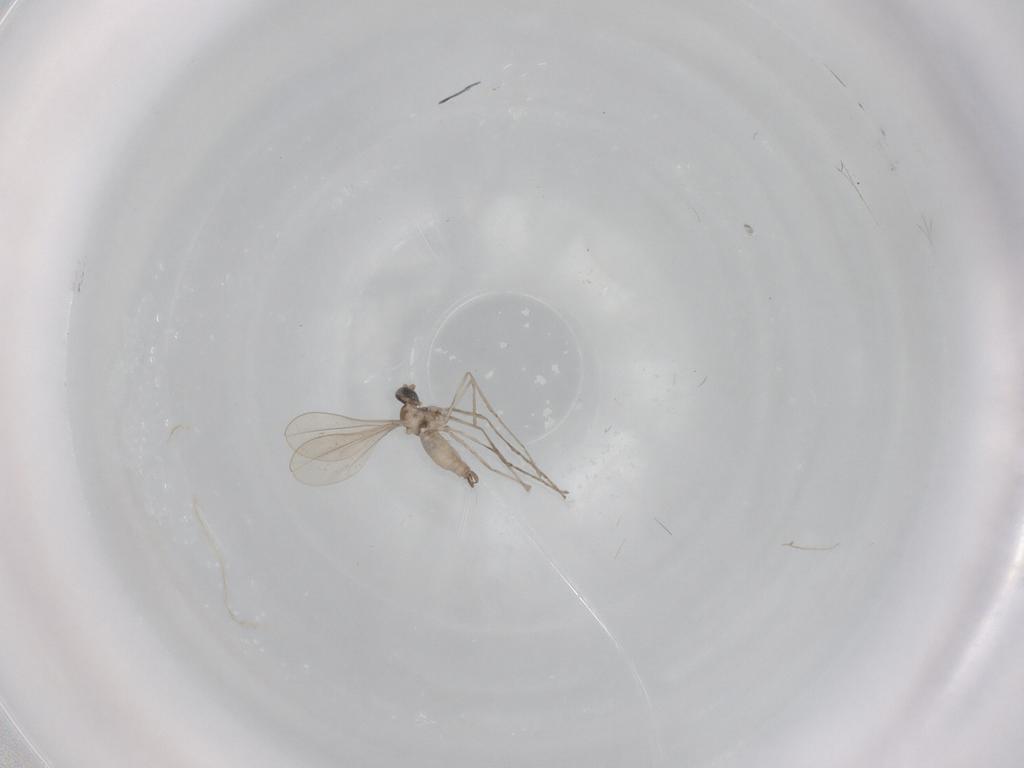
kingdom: Animalia
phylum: Arthropoda
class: Insecta
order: Diptera
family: Cecidomyiidae
